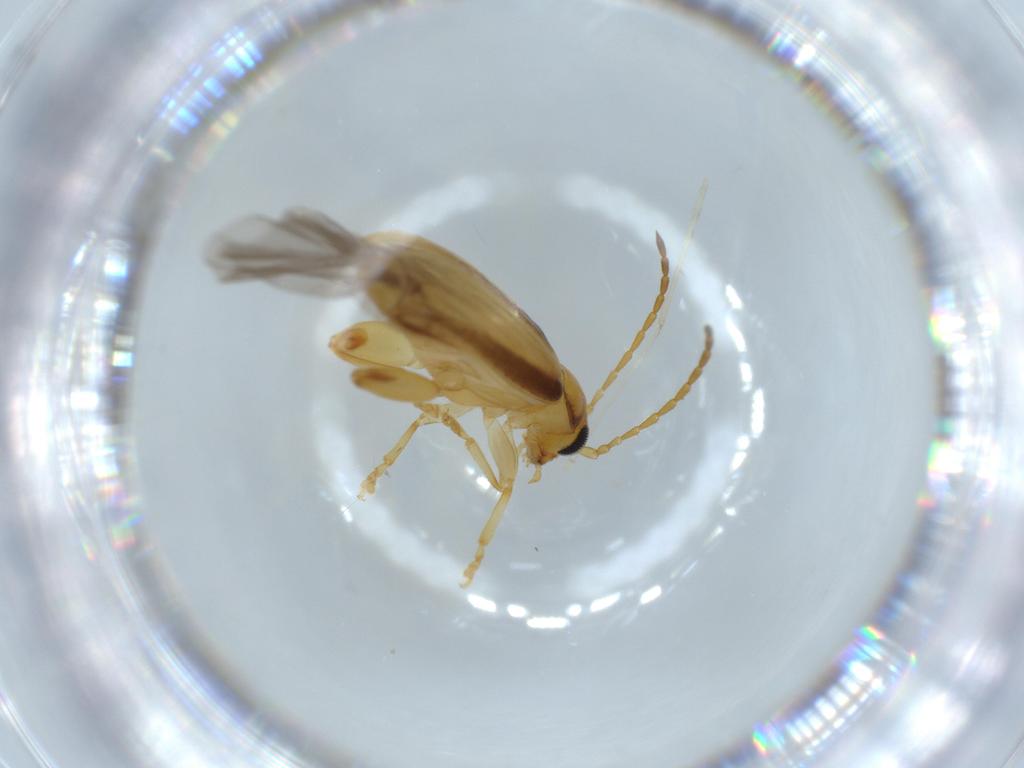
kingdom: Animalia
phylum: Arthropoda
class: Insecta
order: Coleoptera
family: Chrysomelidae
